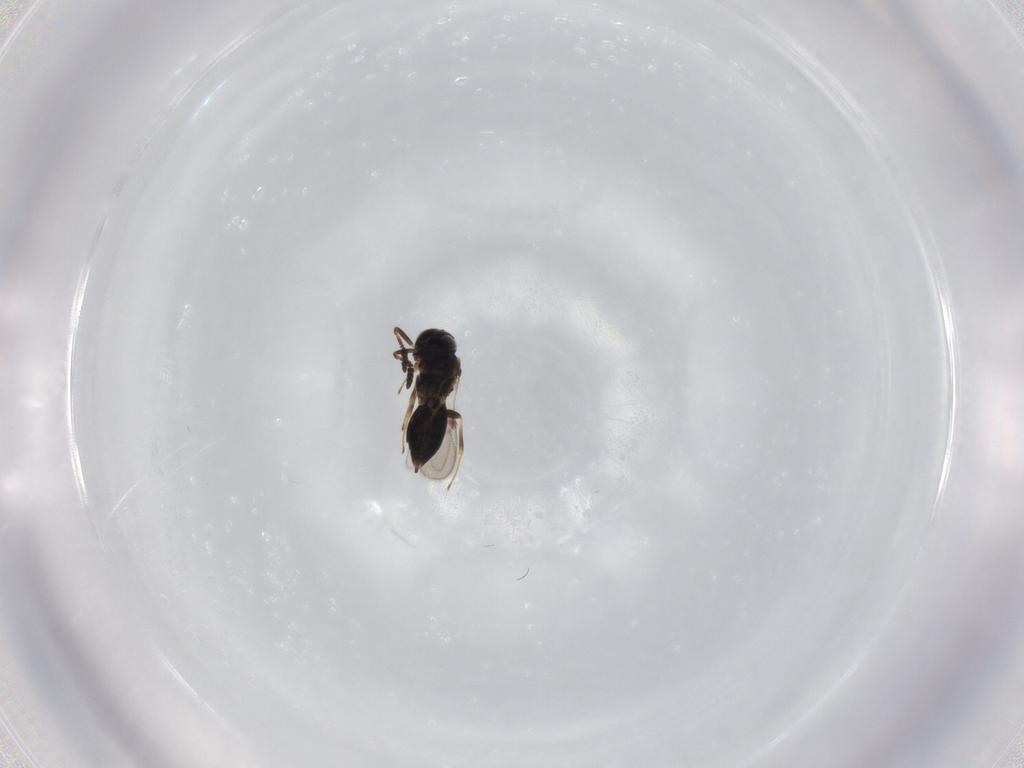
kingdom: Animalia
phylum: Arthropoda
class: Insecta
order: Hymenoptera
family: Scelionidae
